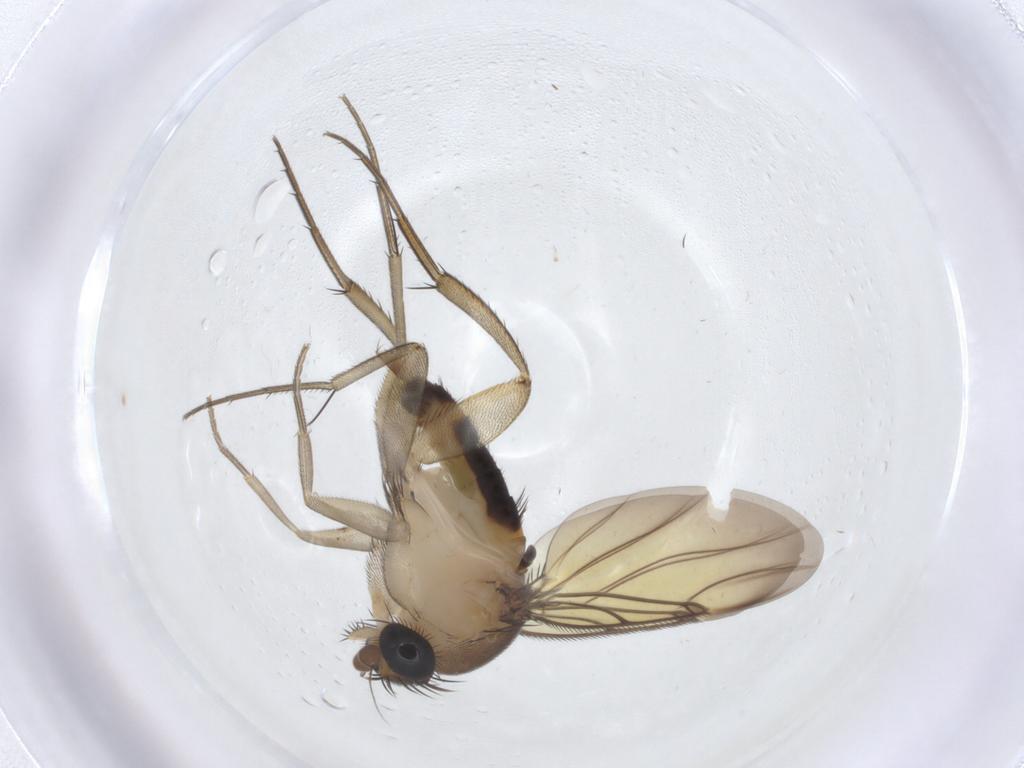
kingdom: Animalia
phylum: Arthropoda
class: Insecta
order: Diptera
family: Phoridae
